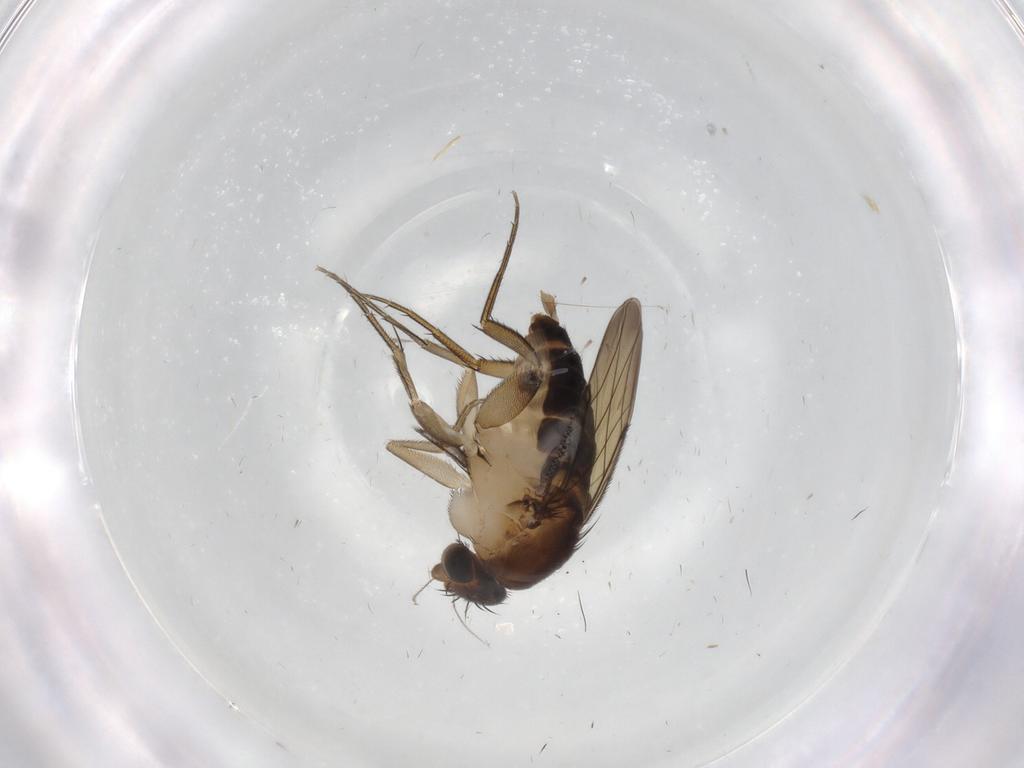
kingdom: Animalia
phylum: Arthropoda
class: Insecta
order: Diptera
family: Phoridae
